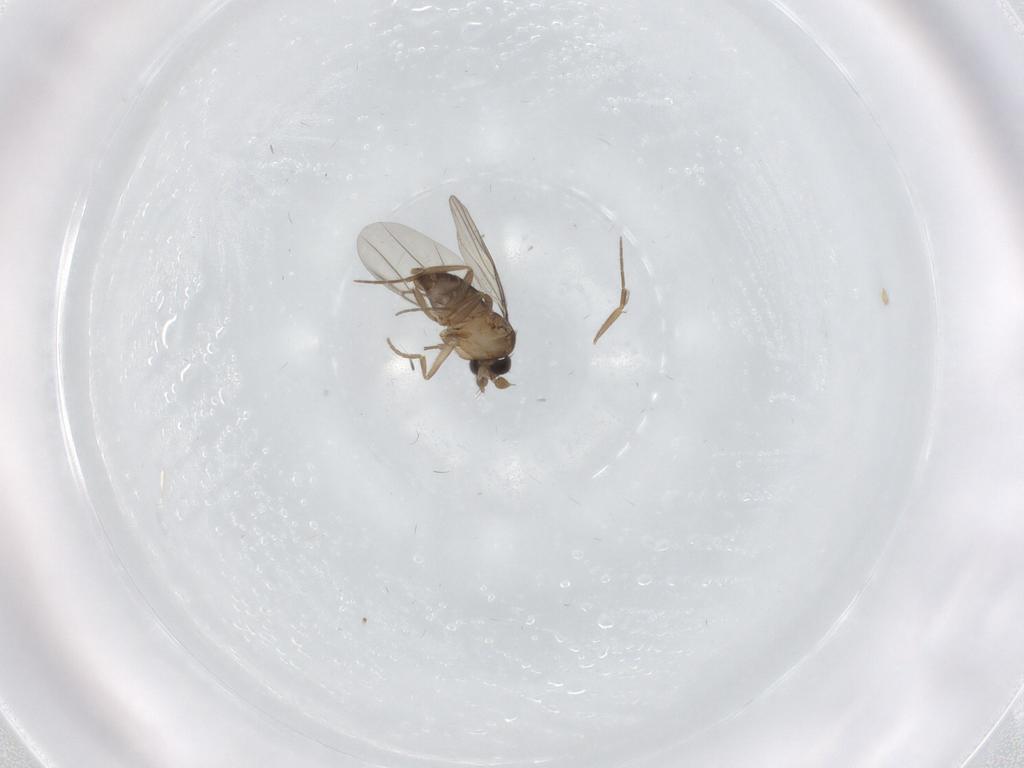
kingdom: Animalia
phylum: Arthropoda
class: Insecta
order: Diptera
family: Phoridae
